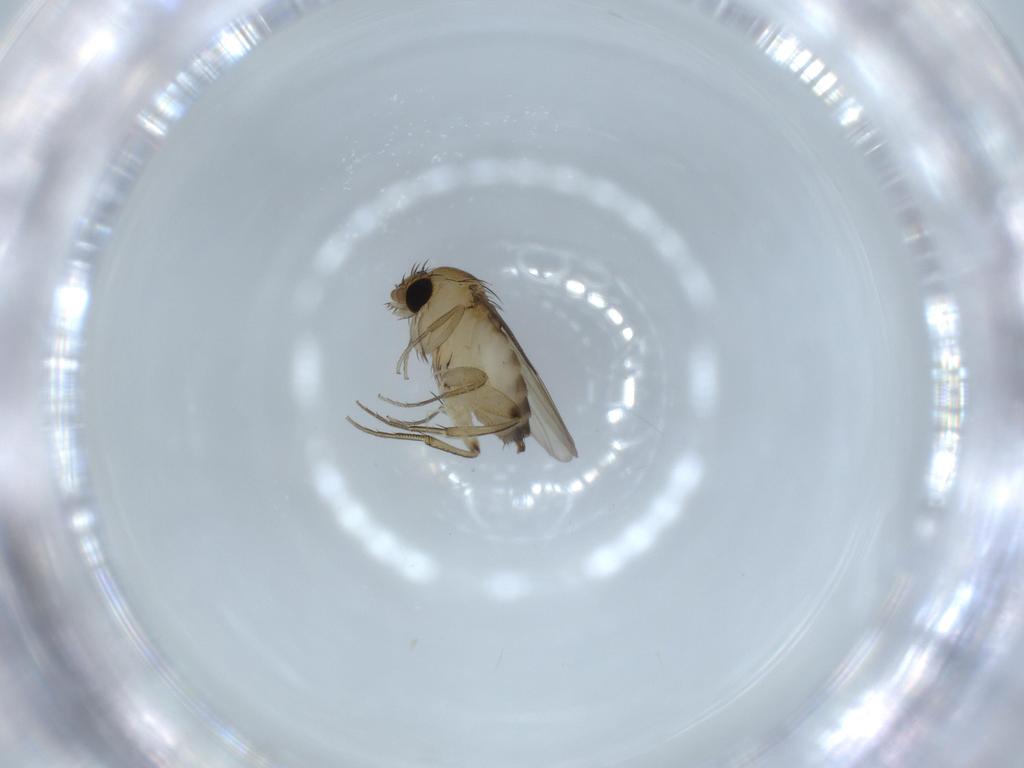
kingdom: Animalia
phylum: Arthropoda
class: Insecta
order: Diptera
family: Phoridae
